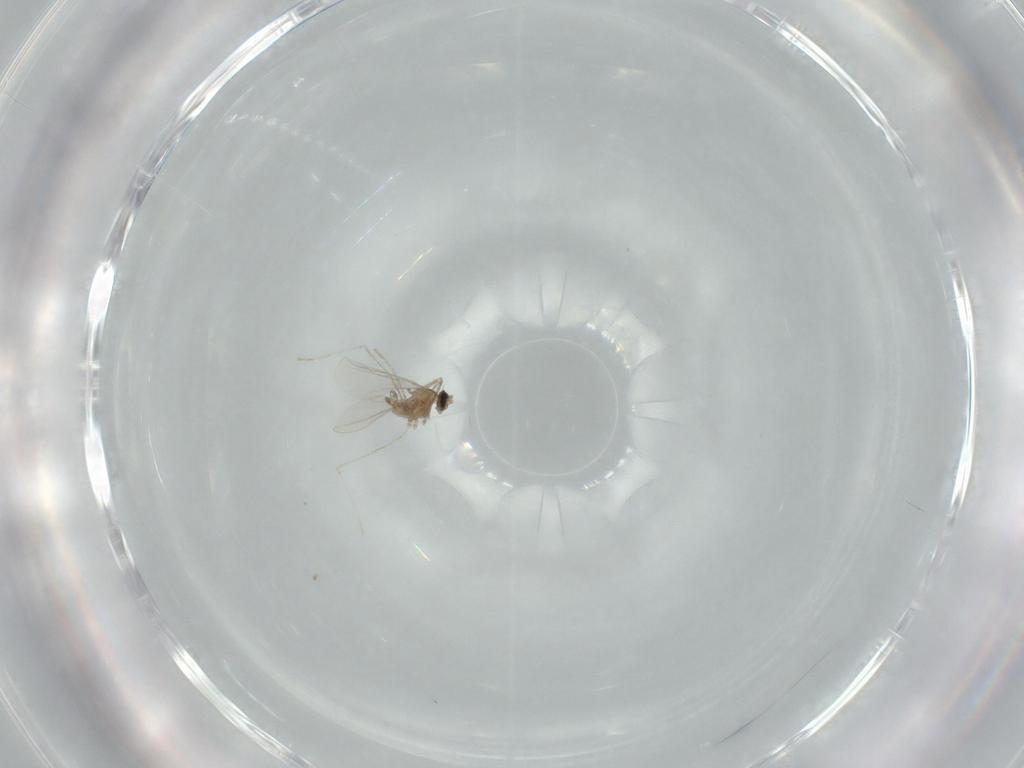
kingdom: Animalia
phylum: Arthropoda
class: Insecta
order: Diptera
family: Cecidomyiidae
